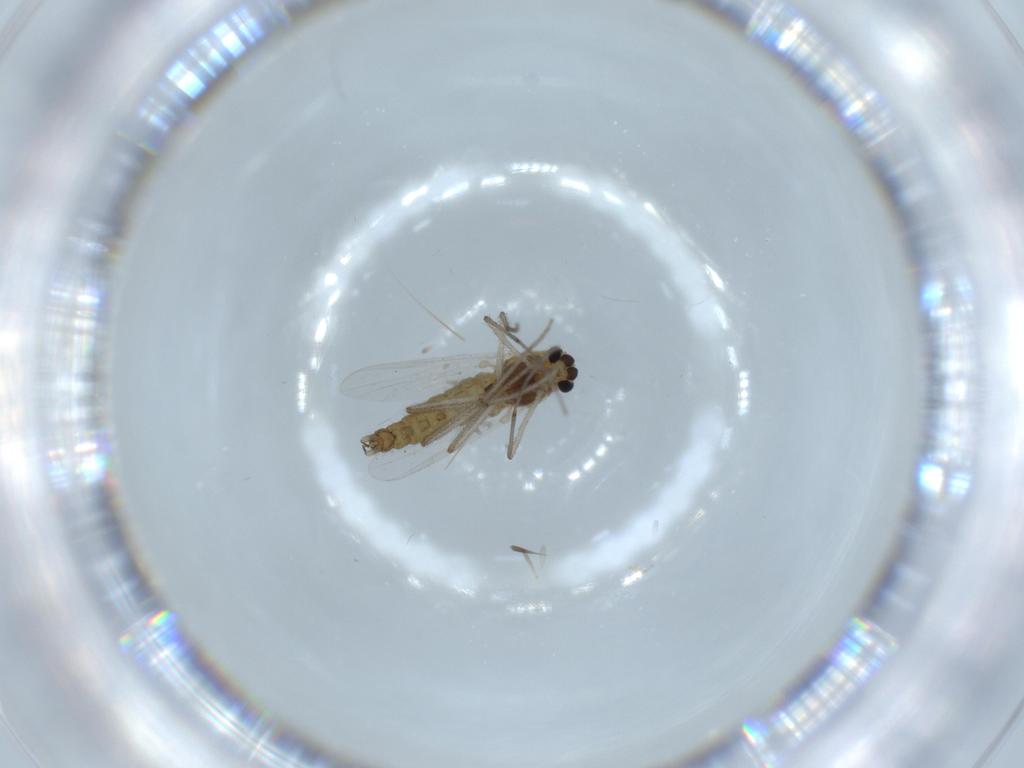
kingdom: Animalia
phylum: Arthropoda
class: Insecta
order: Diptera
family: Chironomidae
